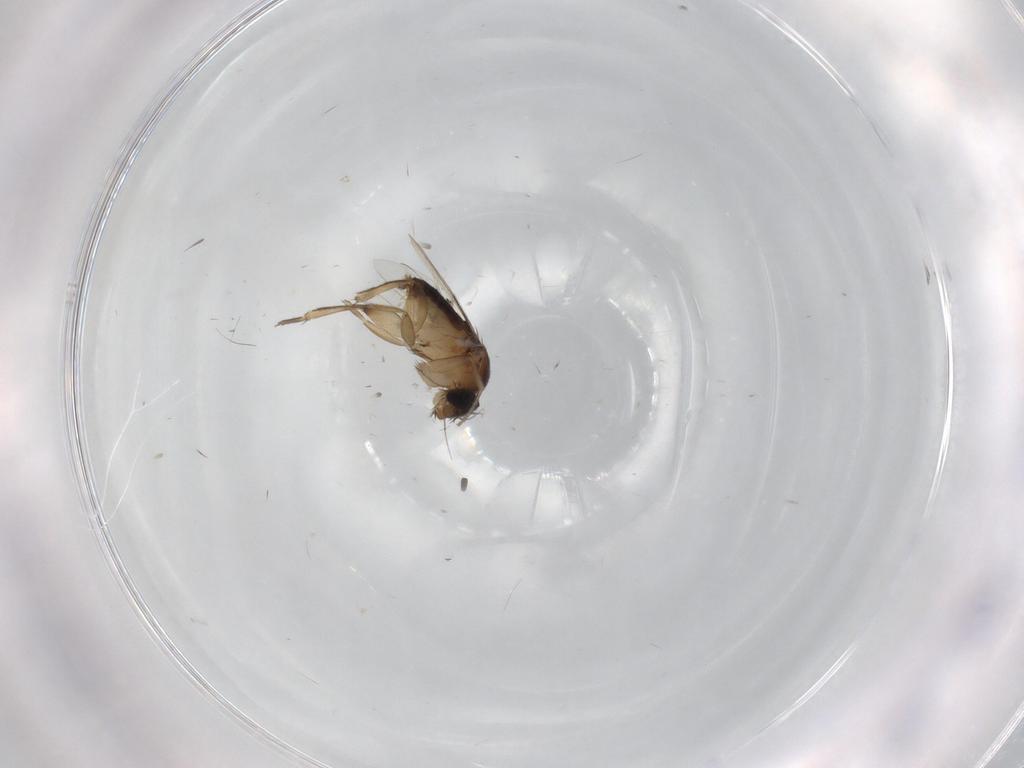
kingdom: Animalia
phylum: Arthropoda
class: Insecta
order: Diptera
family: Phoridae
